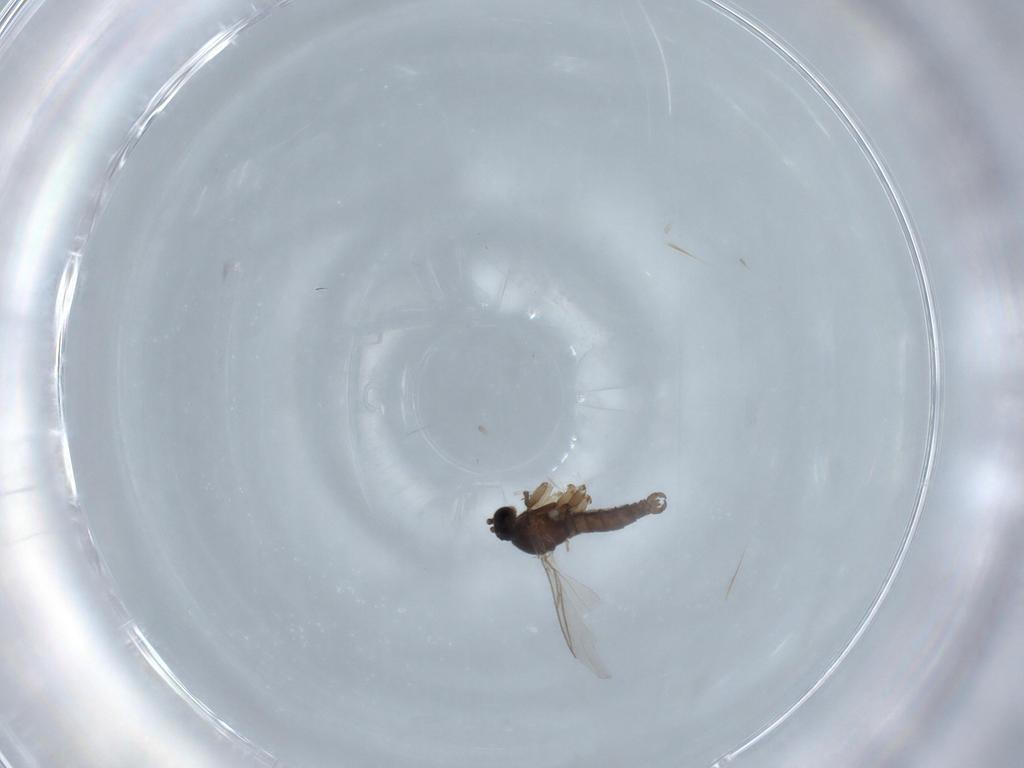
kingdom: Animalia
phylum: Arthropoda
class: Insecta
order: Diptera
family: Sciaridae
